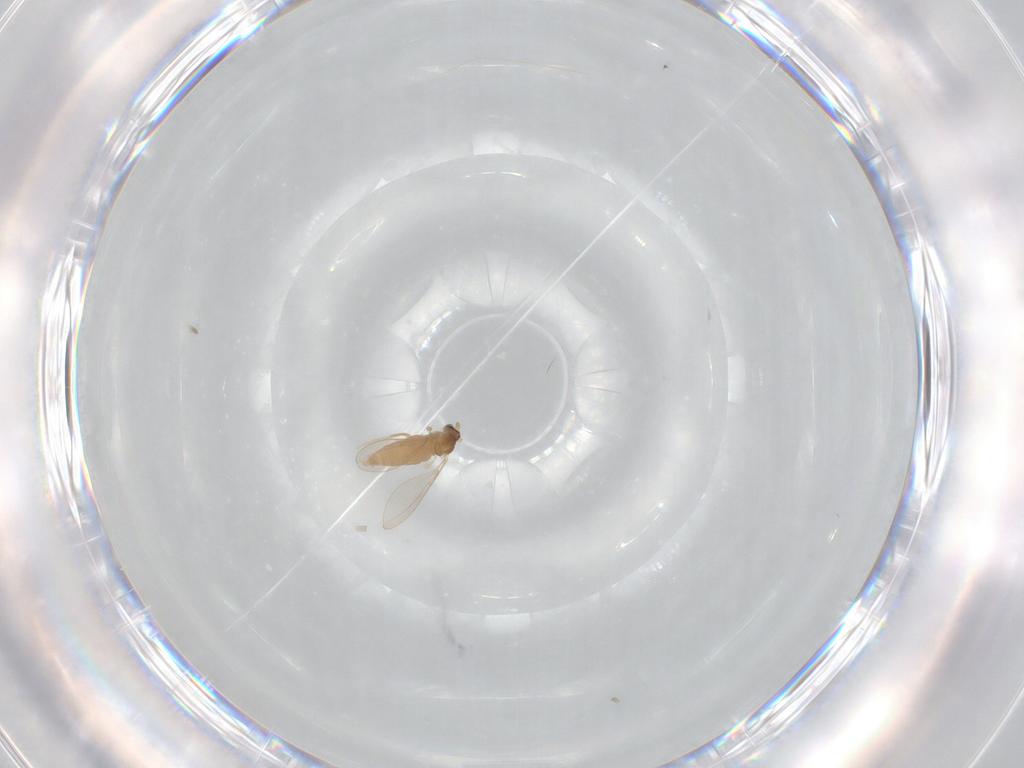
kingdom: Animalia
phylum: Arthropoda
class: Insecta
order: Diptera
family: Cecidomyiidae
